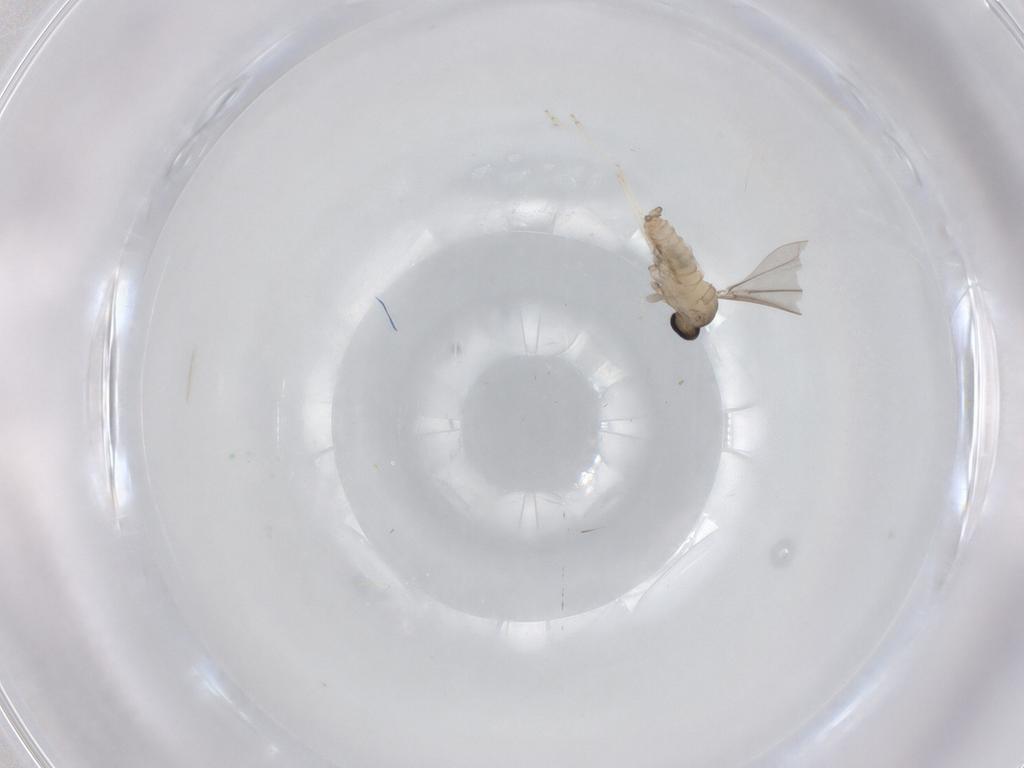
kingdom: Animalia
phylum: Arthropoda
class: Insecta
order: Diptera
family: Cecidomyiidae
